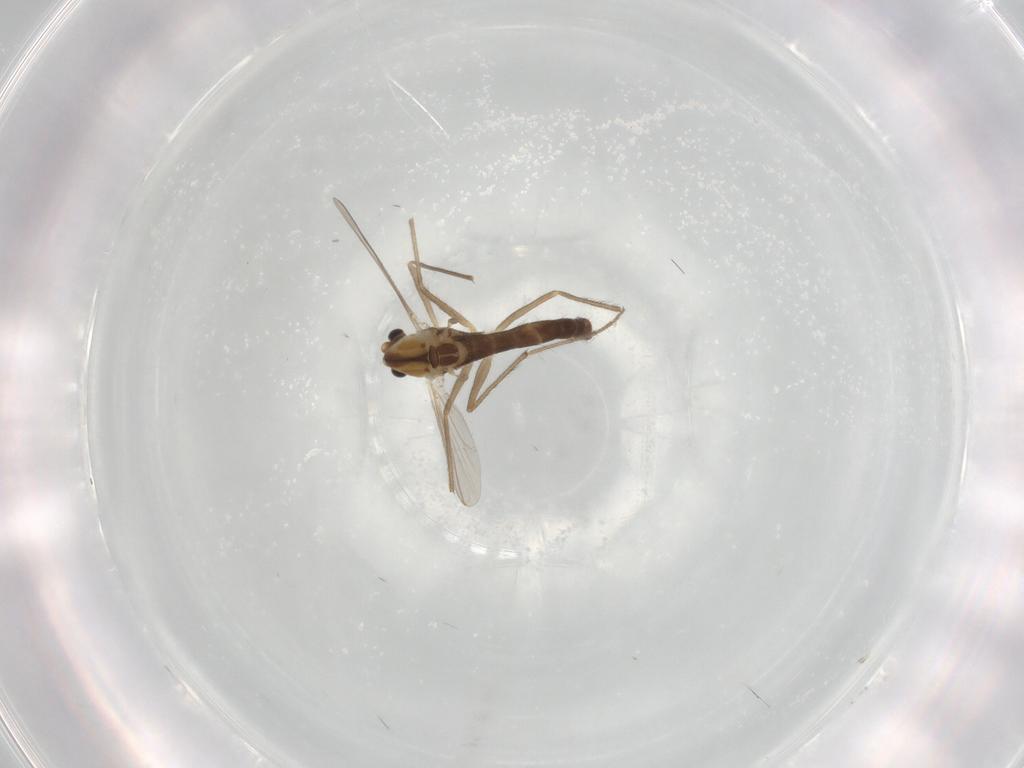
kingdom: Animalia
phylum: Arthropoda
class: Insecta
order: Diptera
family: Chironomidae
